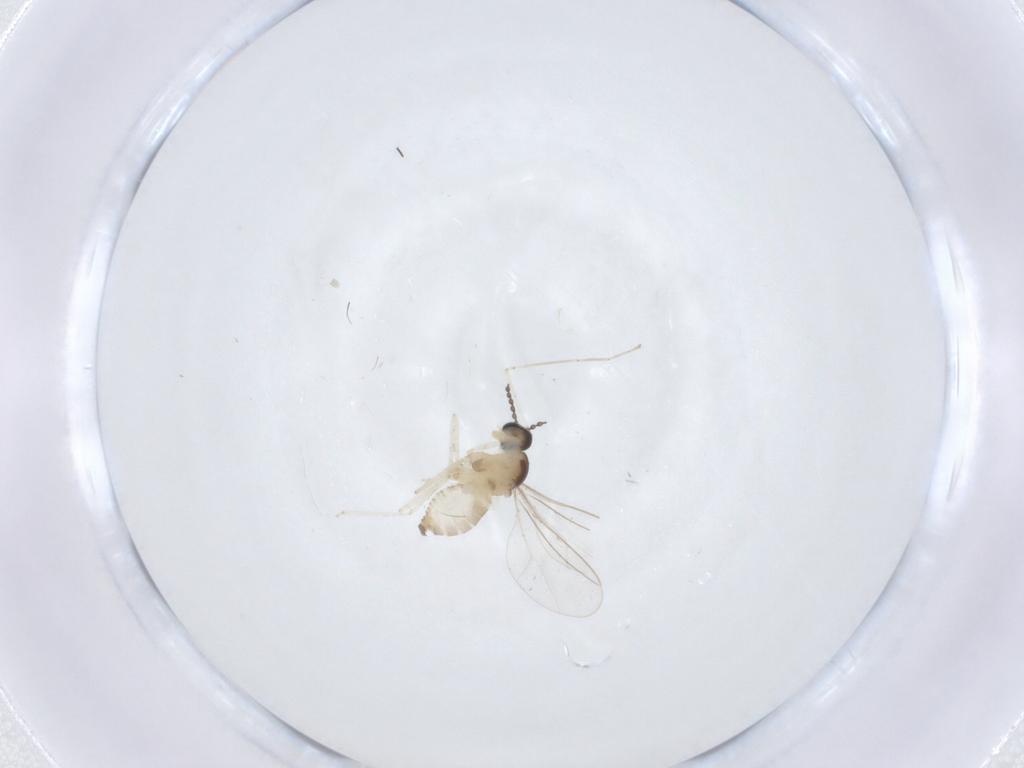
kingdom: Animalia
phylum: Arthropoda
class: Insecta
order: Diptera
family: Cecidomyiidae
